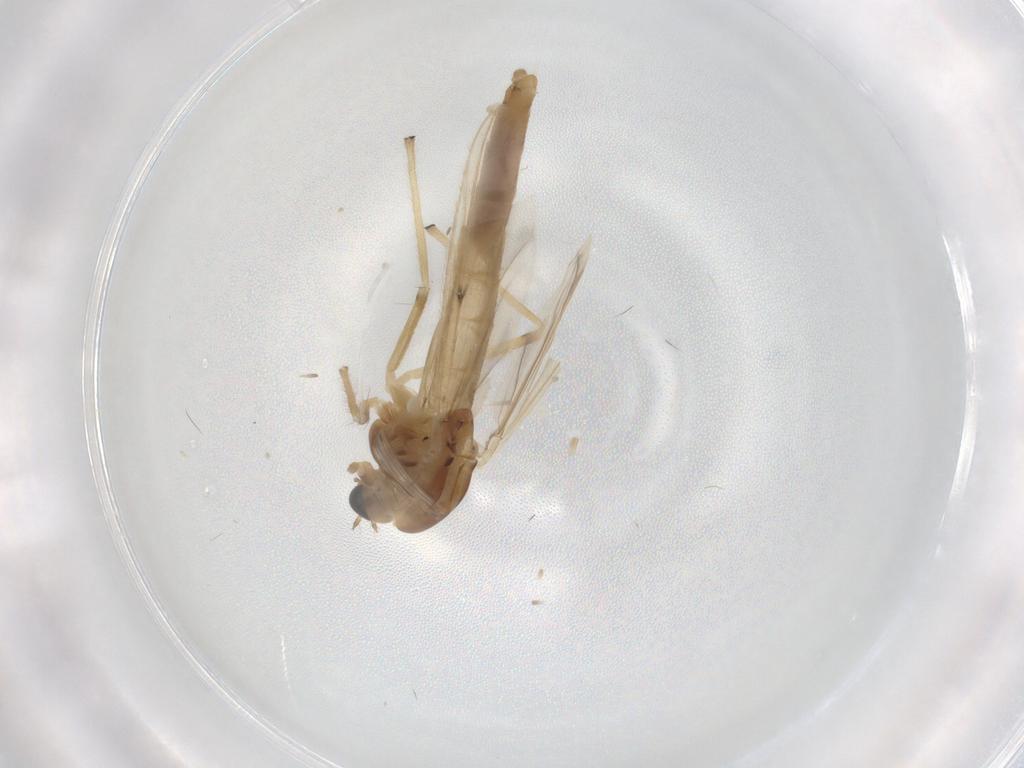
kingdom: Animalia
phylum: Arthropoda
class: Insecta
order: Diptera
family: Chironomidae
